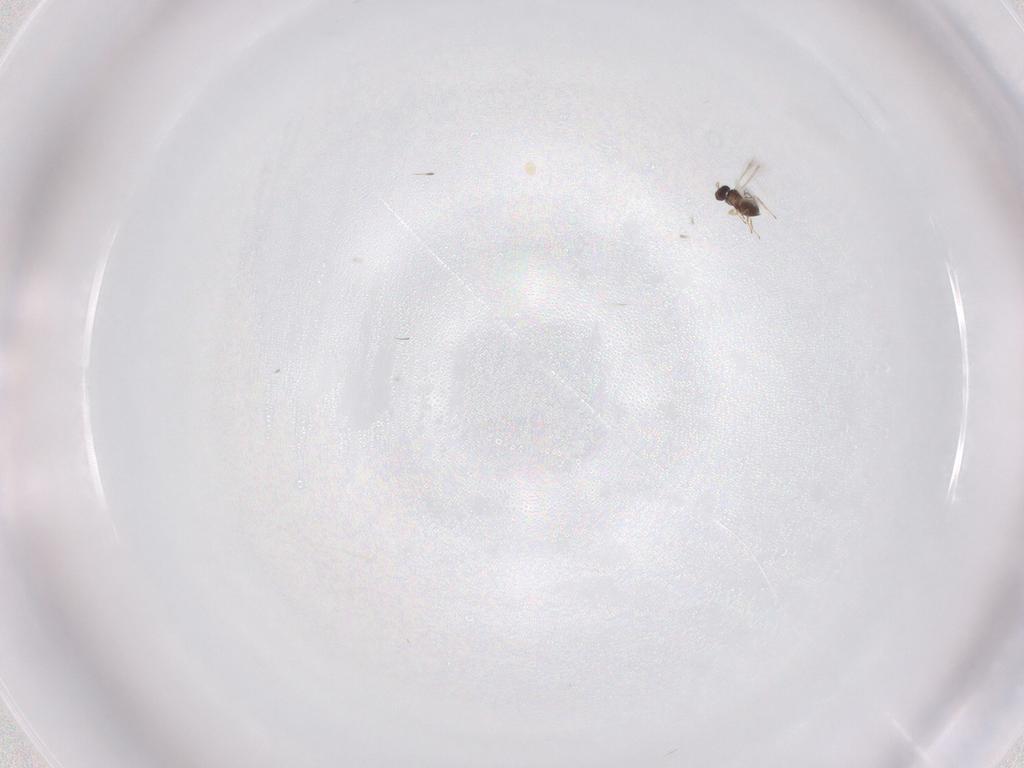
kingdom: Animalia
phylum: Arthropoda
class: Insecta
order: Hymenoptera
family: Mymaridae
